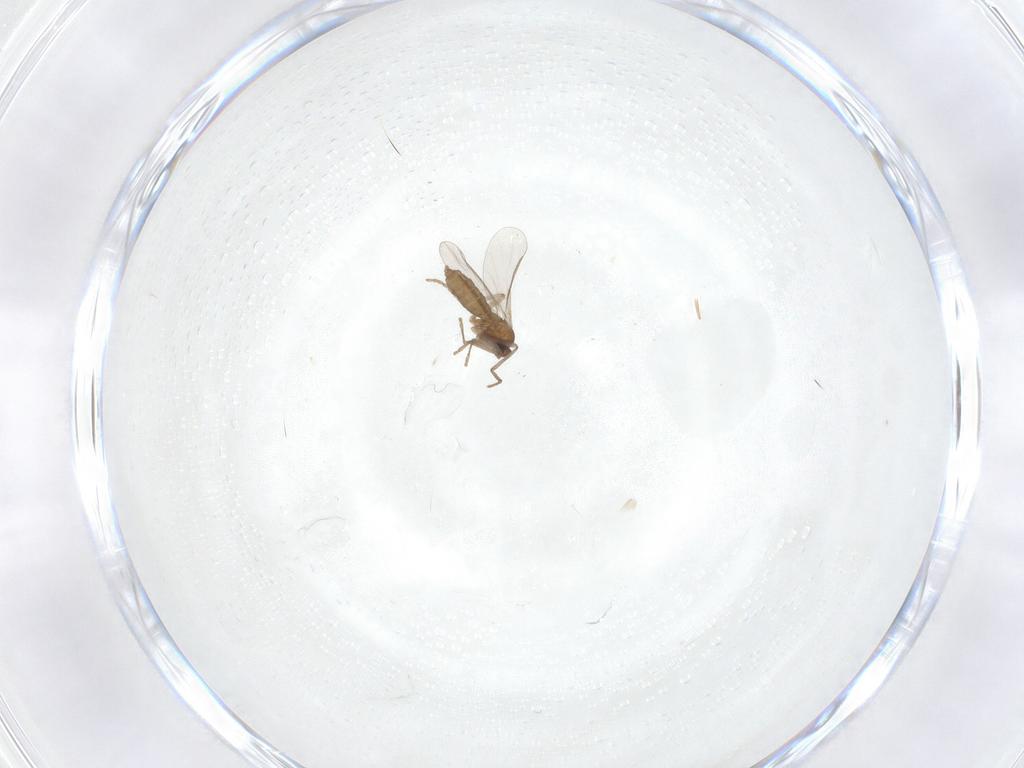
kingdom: Animalia
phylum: Arthropoda
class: Insecta
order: Diptera
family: Cecidomyiidae
